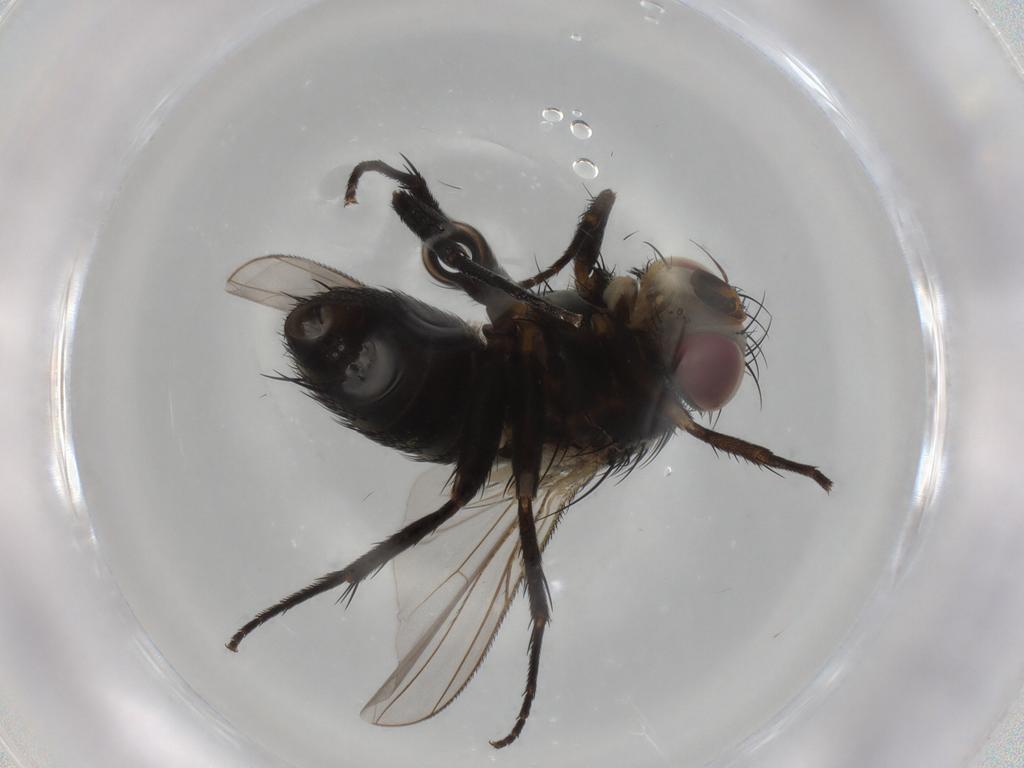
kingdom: Animalia
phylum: Arthropoda
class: Insecta
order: Diptera
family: Tachinidae
